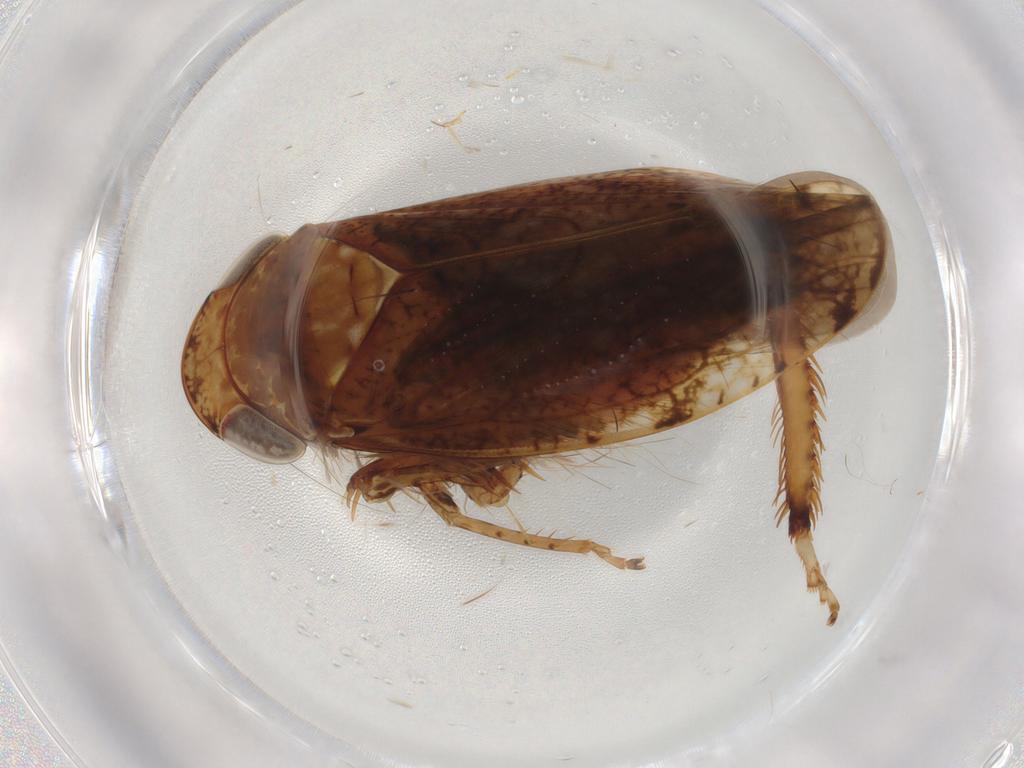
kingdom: Animalia
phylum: Arthropoda
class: Insecta
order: Hemiptera
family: Cicadellidae
